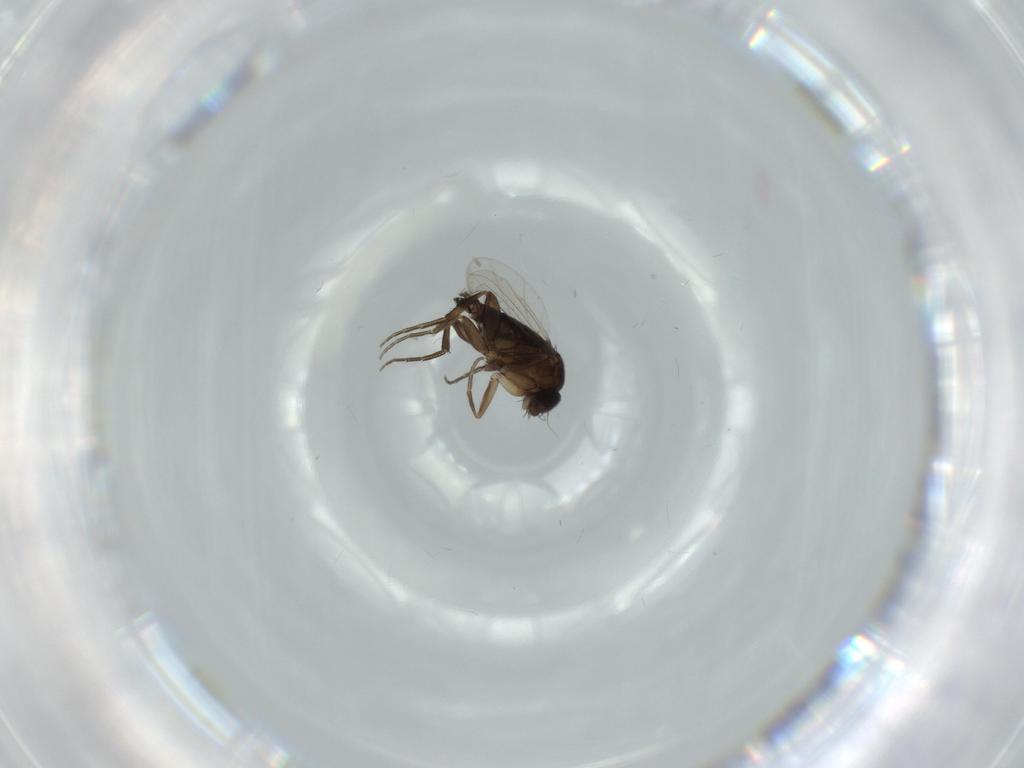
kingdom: Animalia
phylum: Arthropoda
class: Insecta
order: Diptera
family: Phoridae
